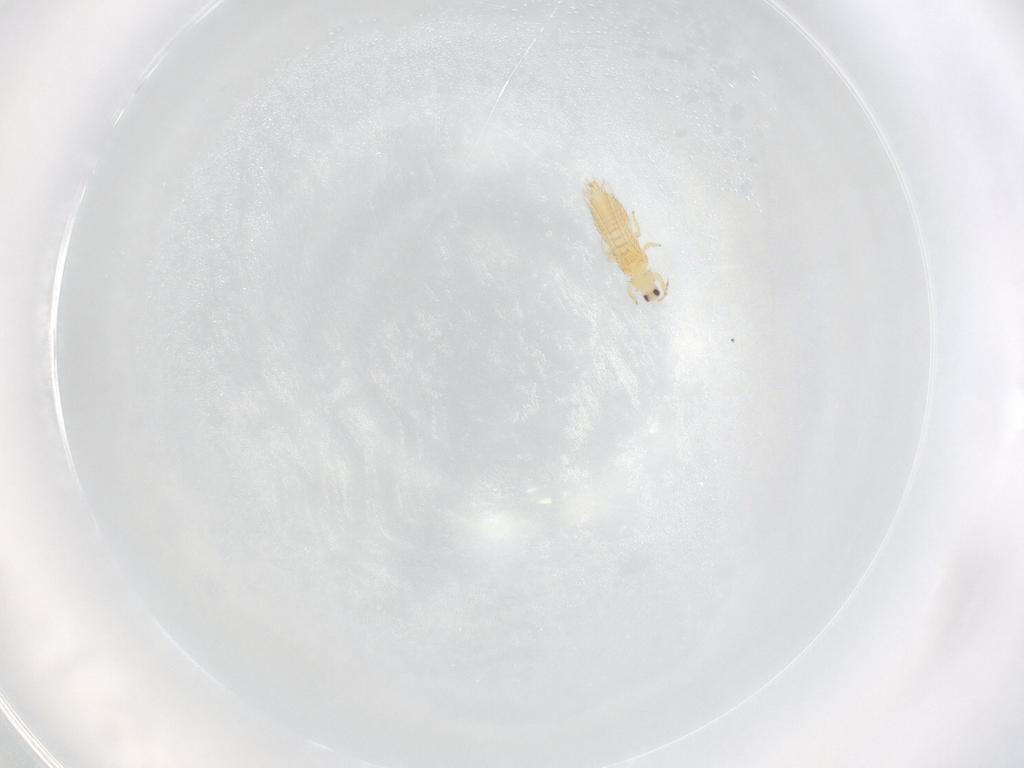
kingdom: Animalia
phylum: Arthropoda
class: Insecta
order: Thysanoptera
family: Thripidae
